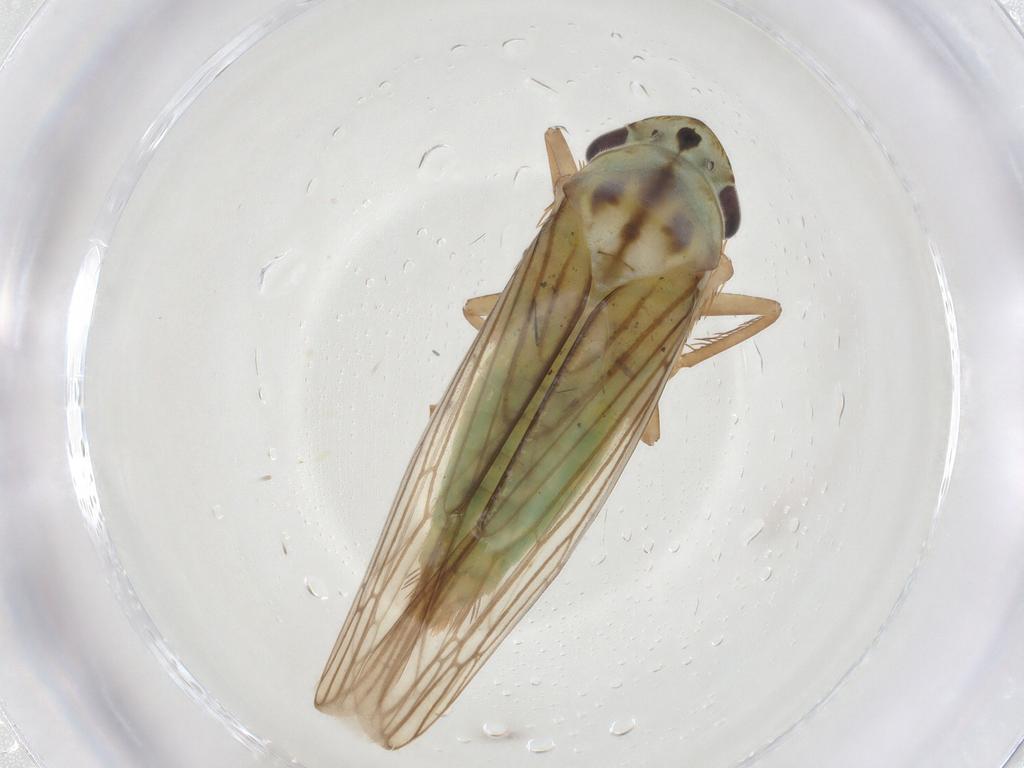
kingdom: Animalia
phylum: Arthropoda
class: Insecta
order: Hemiptera
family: Cicadellidae
